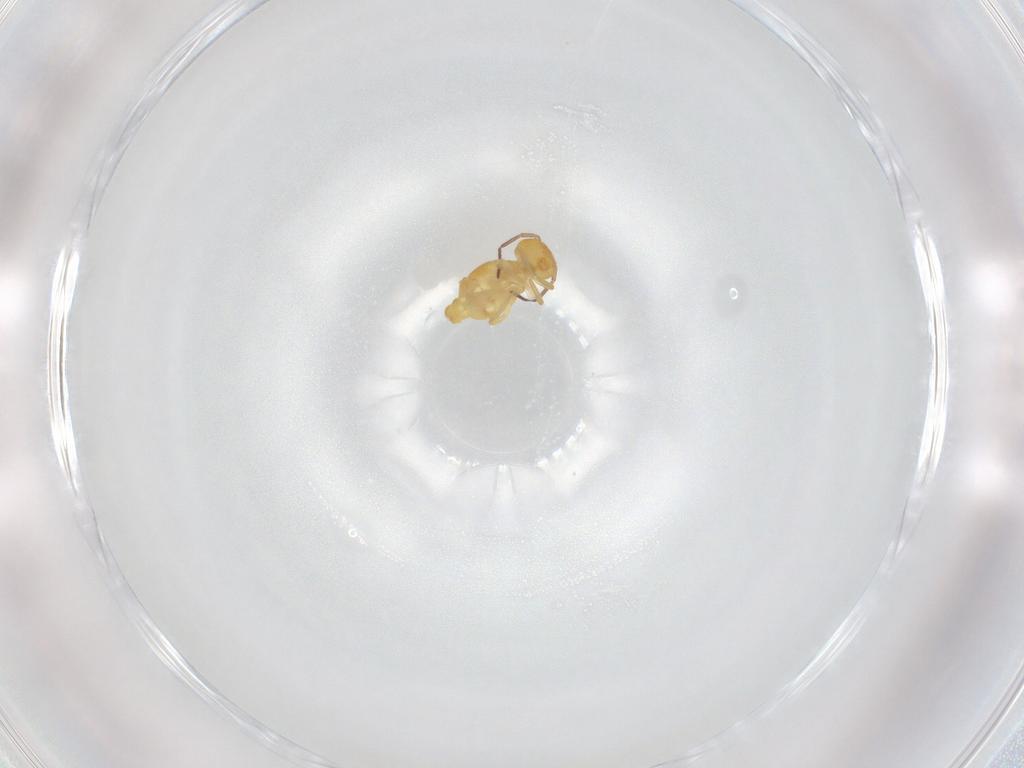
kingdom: Animalia
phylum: Arthropoda
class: Collembola
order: Symphypleona
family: Bourletiellidae
